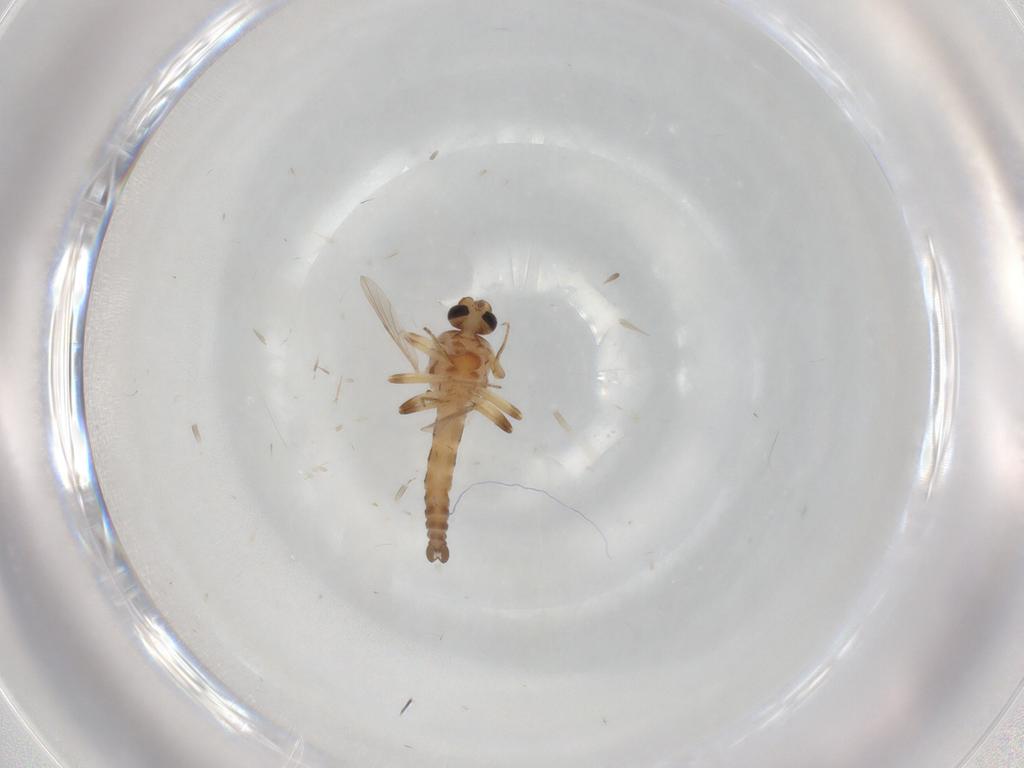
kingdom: Animalia
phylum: Arthropoda
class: Insecta
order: Diptera
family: Ceratopogonidae
